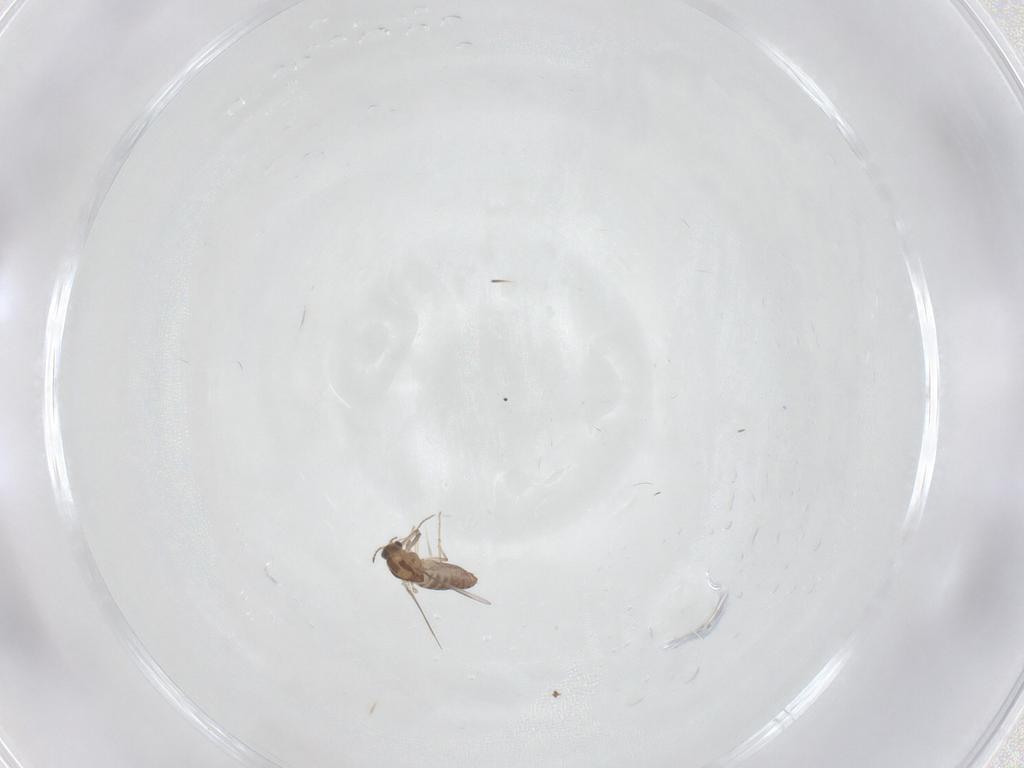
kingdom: Animalia
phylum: Arthropoda
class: Insecta
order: Diptera
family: Chironomidae
